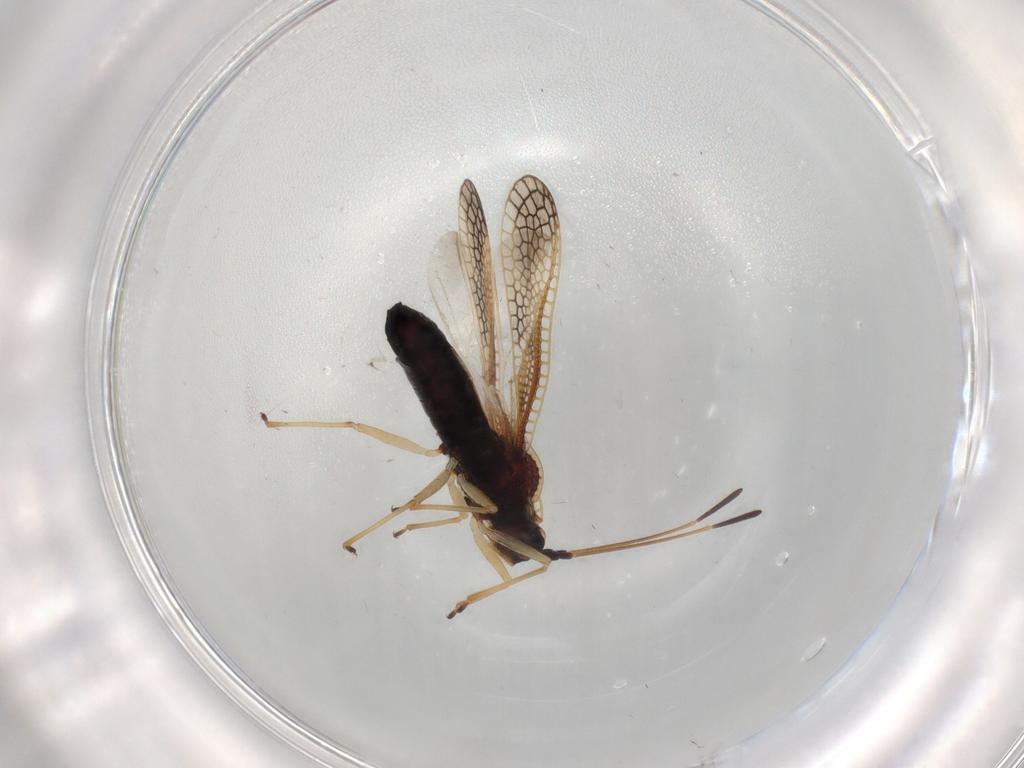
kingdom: Animalia
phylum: Arthropoda
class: Insecta
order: Hemiptera
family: Tingidae
